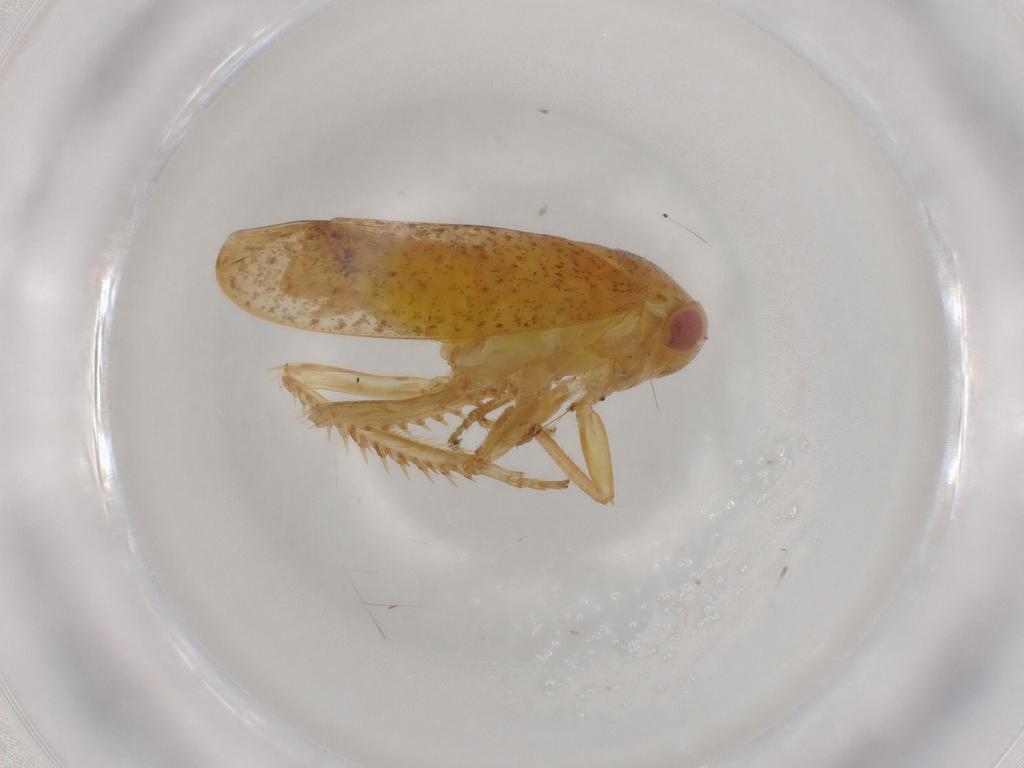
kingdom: Animalia
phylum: Arthropoda
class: Insecta
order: Hemiptera
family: Cicadellidae
